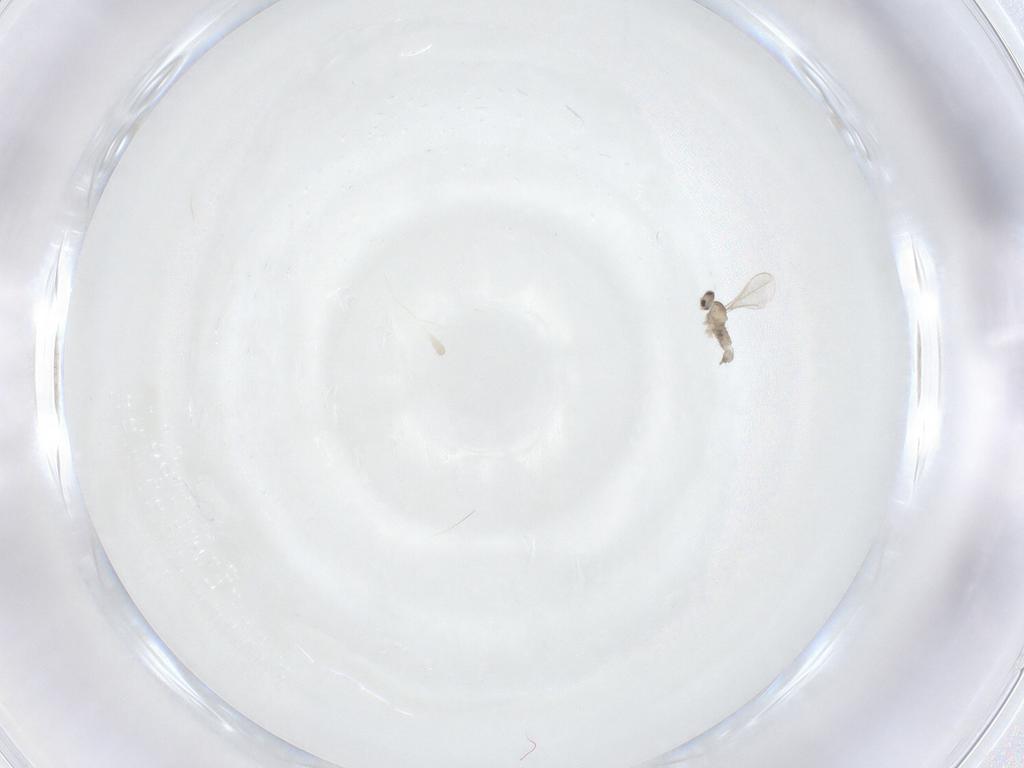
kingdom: Animalia
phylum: Arthropoda
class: Insecta
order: Diptera
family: Cecidomyiidae
